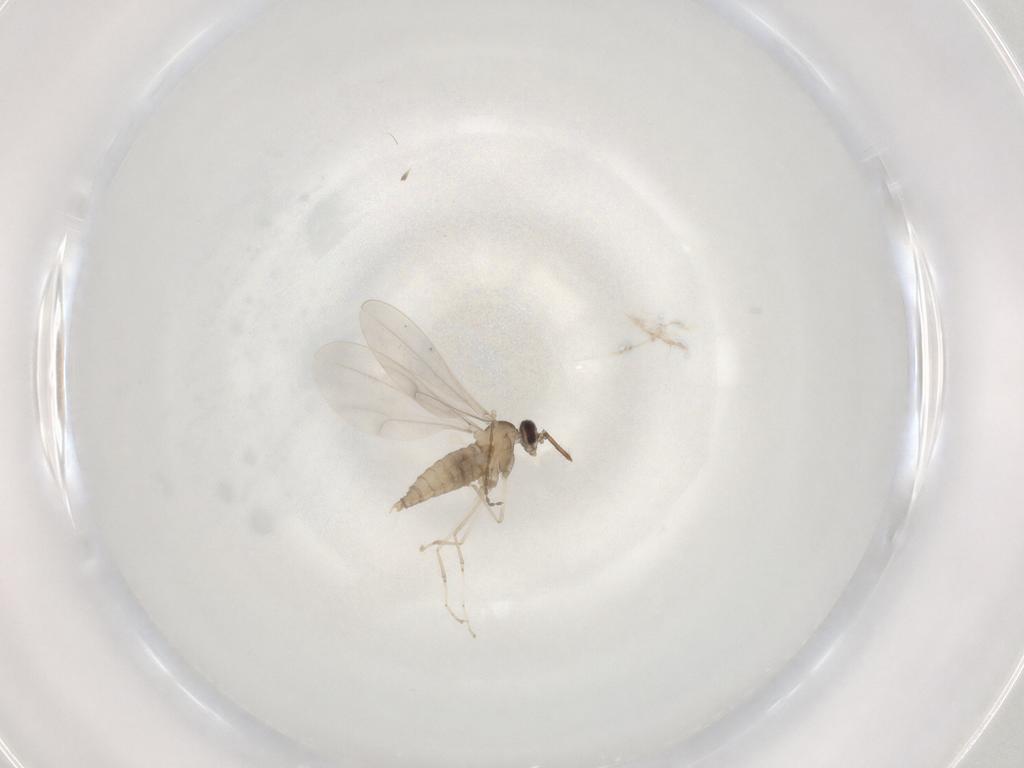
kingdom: Animalia
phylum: Arthropoda
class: Insecta
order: Diptera
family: Cecidomyiidae
